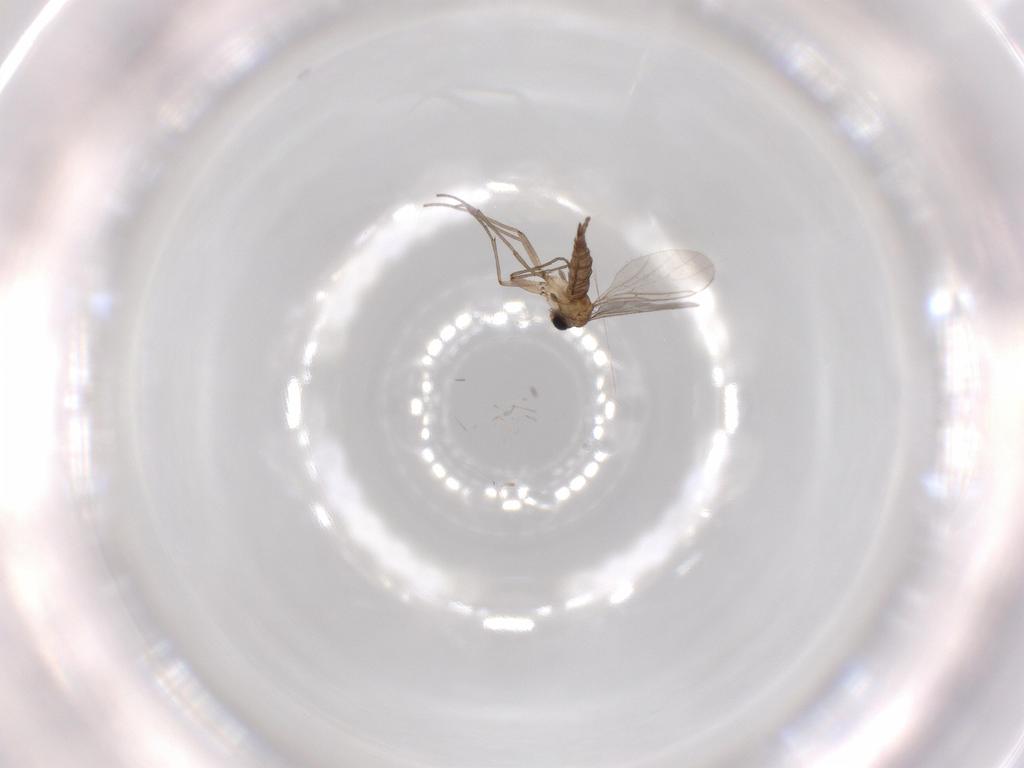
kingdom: Animalia
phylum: Arthropoda
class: Insecta
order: Diptera
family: Sciaridae
